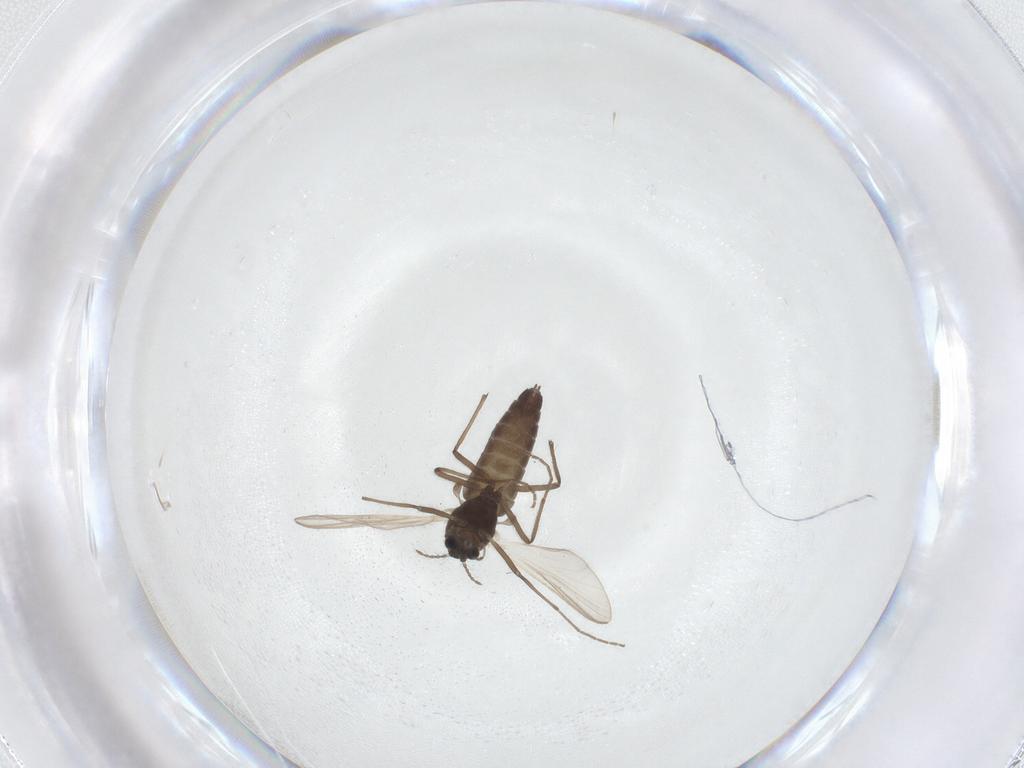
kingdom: Animalia
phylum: Arthropoda
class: Insecta
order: Diptera
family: Chironomidae
